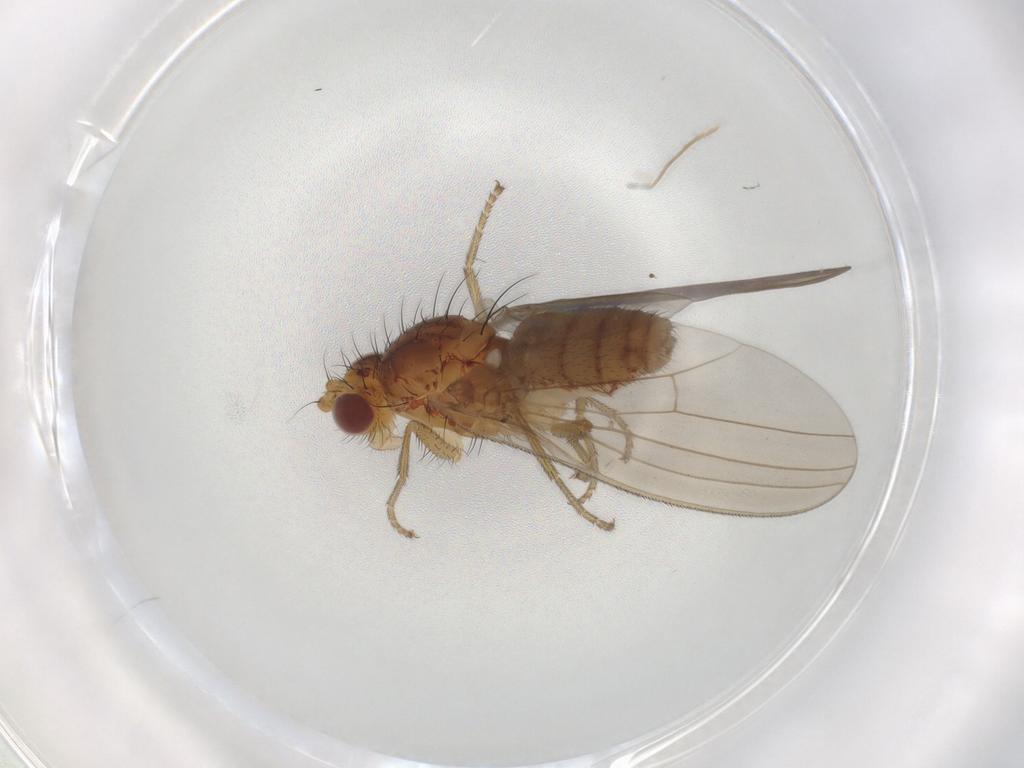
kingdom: Animalia
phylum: Arthropoda
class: Insecta
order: Diptera
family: Natalimyzidae
